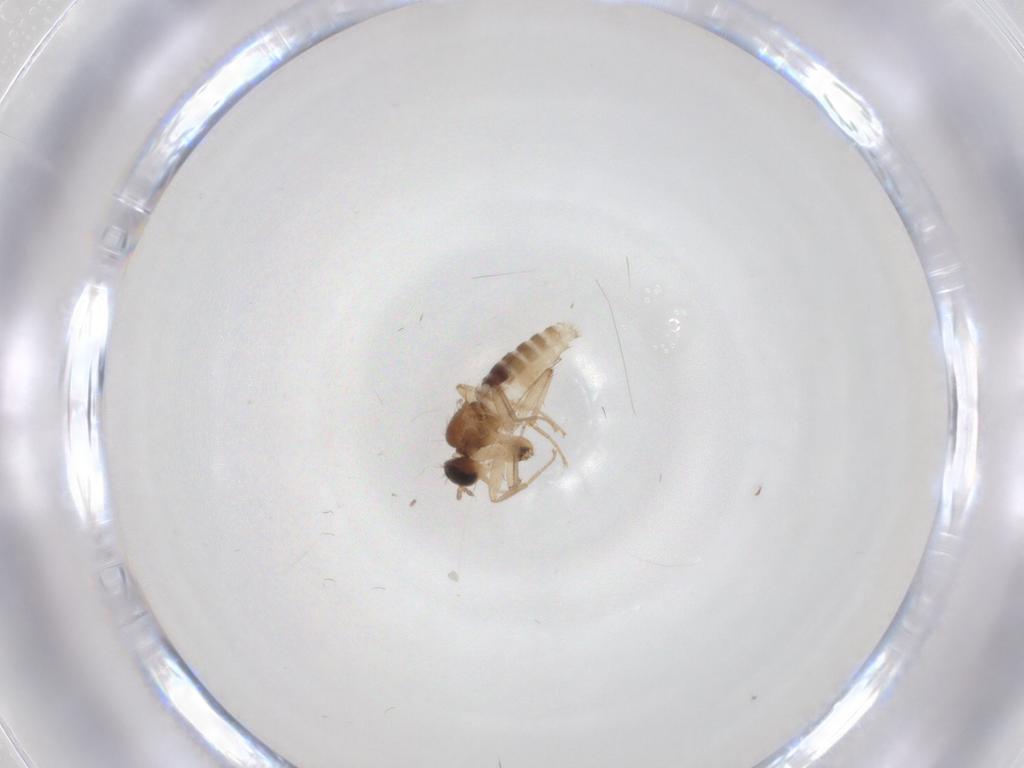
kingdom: Animalia
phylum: Arthropoda
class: Insecta
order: Diptera
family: Hybotidae
